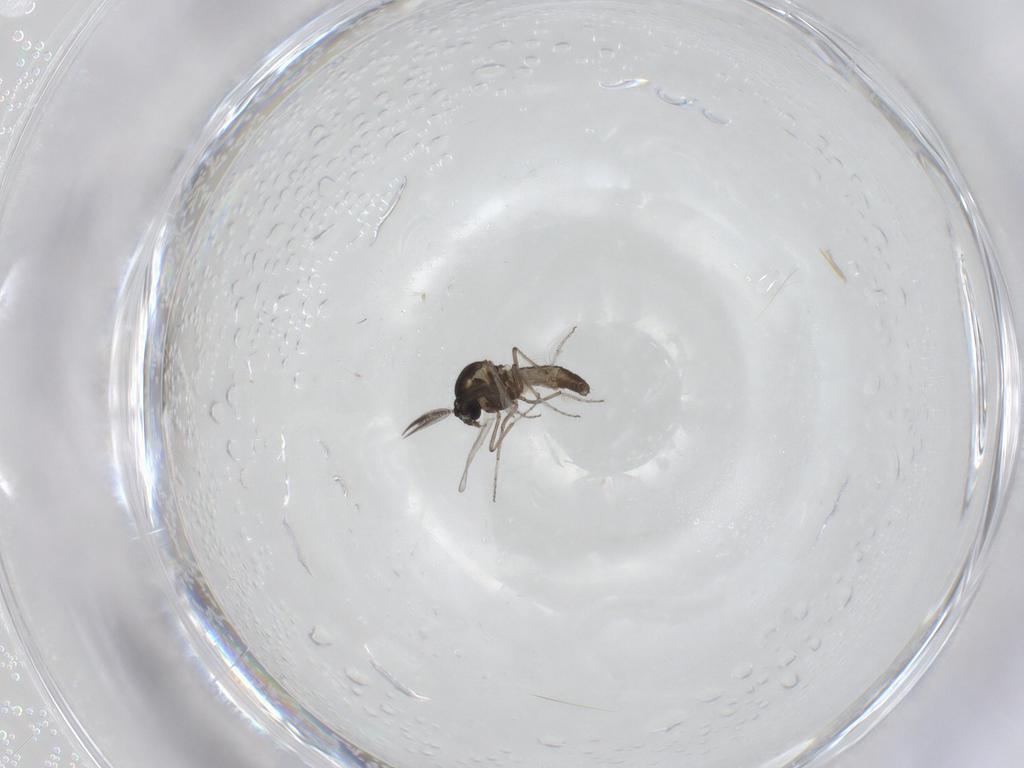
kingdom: Animalia
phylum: Arthropoda
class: Insecta
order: Diptera
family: Ceratopogonidae
